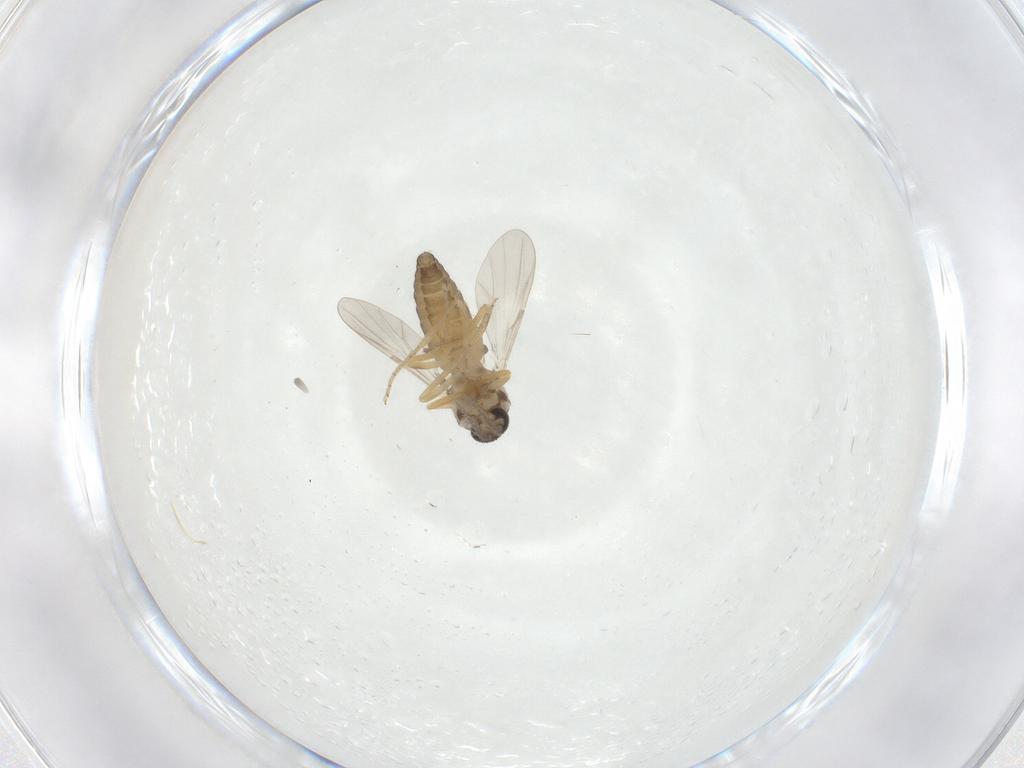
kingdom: Animalia
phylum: Arthropoda
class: Insecta
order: Diptera
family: Ceratopogonidae
